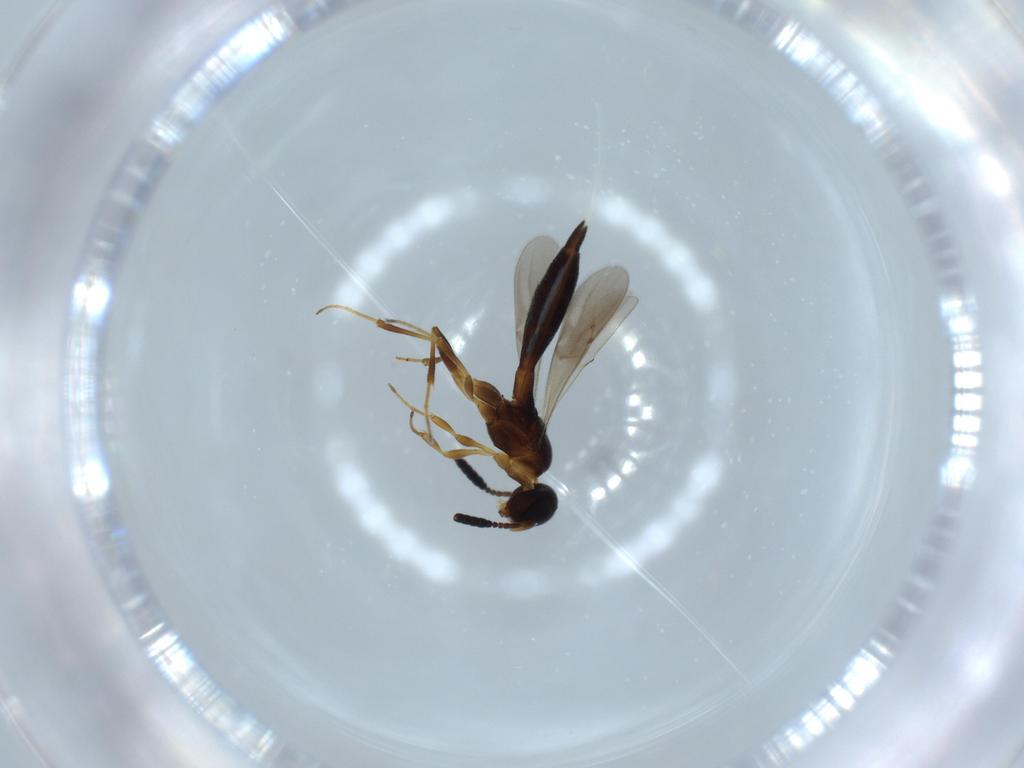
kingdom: Animalia
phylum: Arthropoda
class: Insecta
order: Hymenoptera
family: Scelionidae
